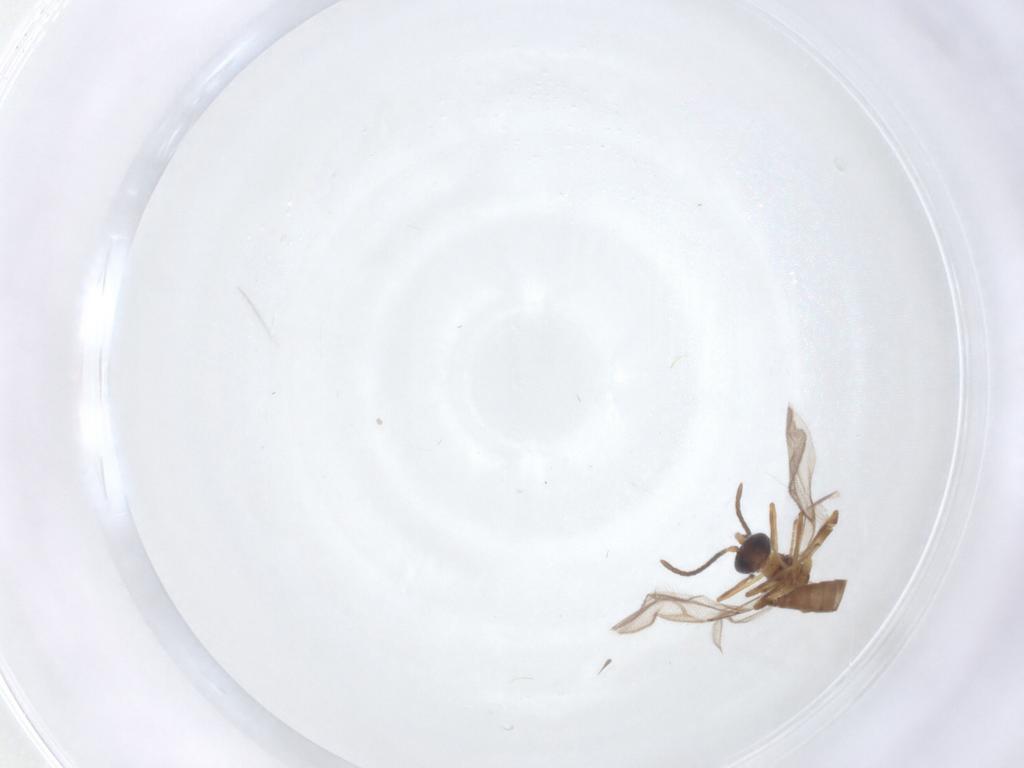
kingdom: Animalia
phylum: Arthropoda
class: Insecta
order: Hymenoptera
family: Braconidae
